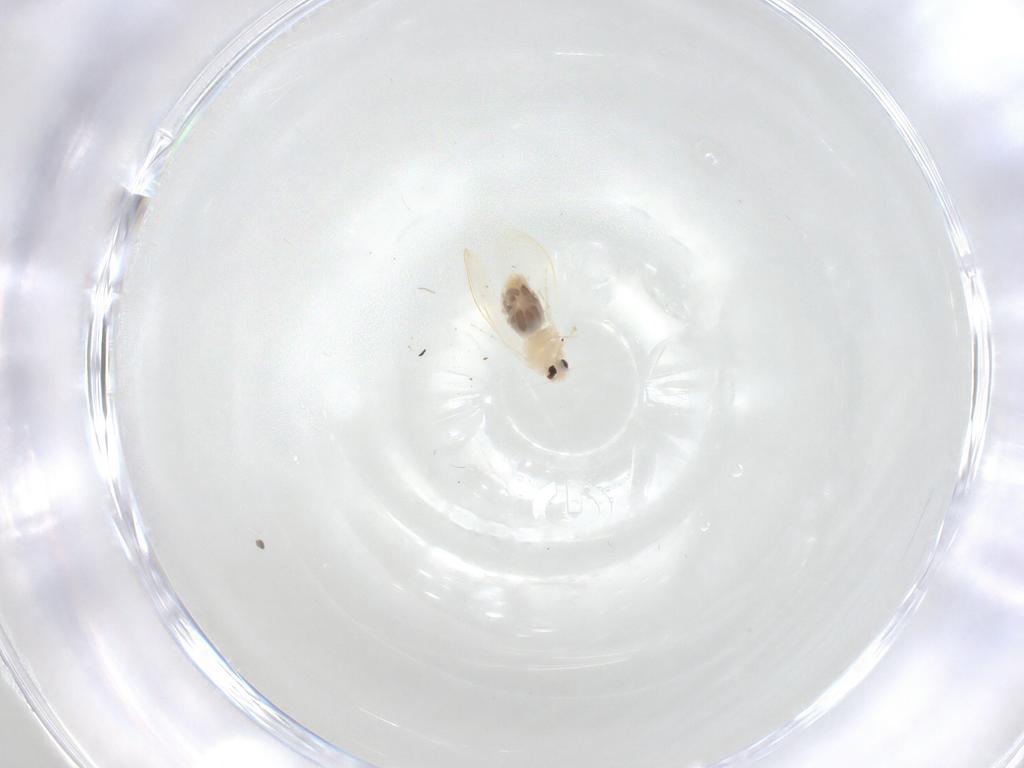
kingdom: Animalia
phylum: Arthropoda
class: Insecta
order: Hemiptera
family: Aleyrodidae
